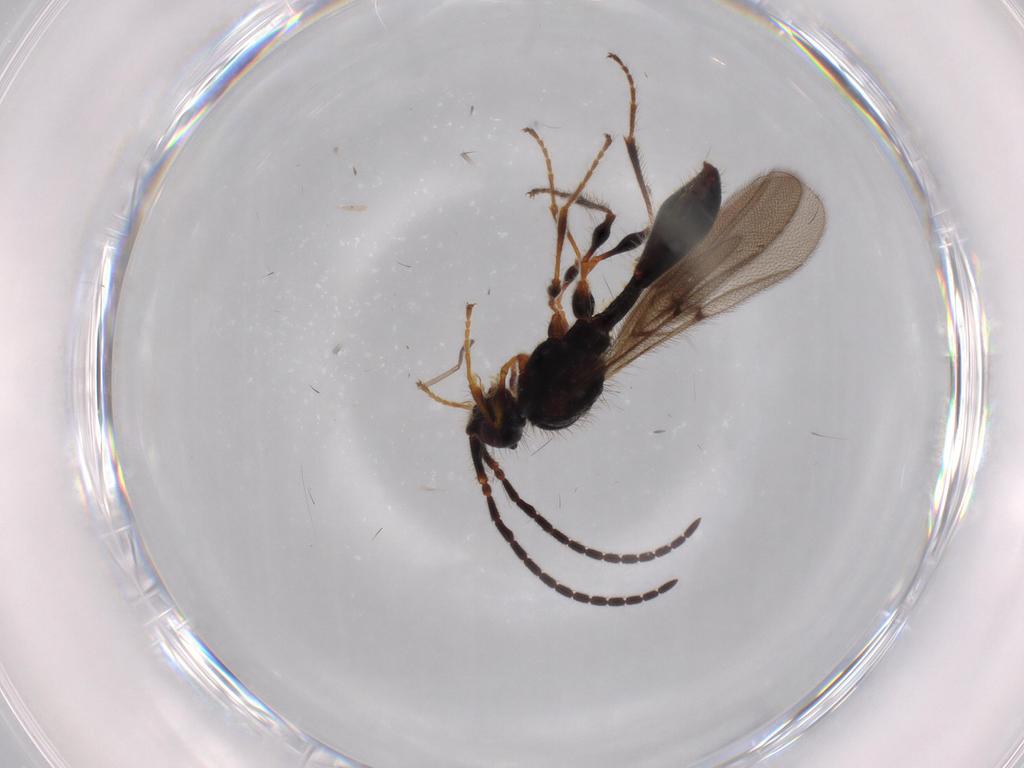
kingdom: Animalia
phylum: Arthropoda
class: Insecta
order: Hymenoptera
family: Diapriidae
